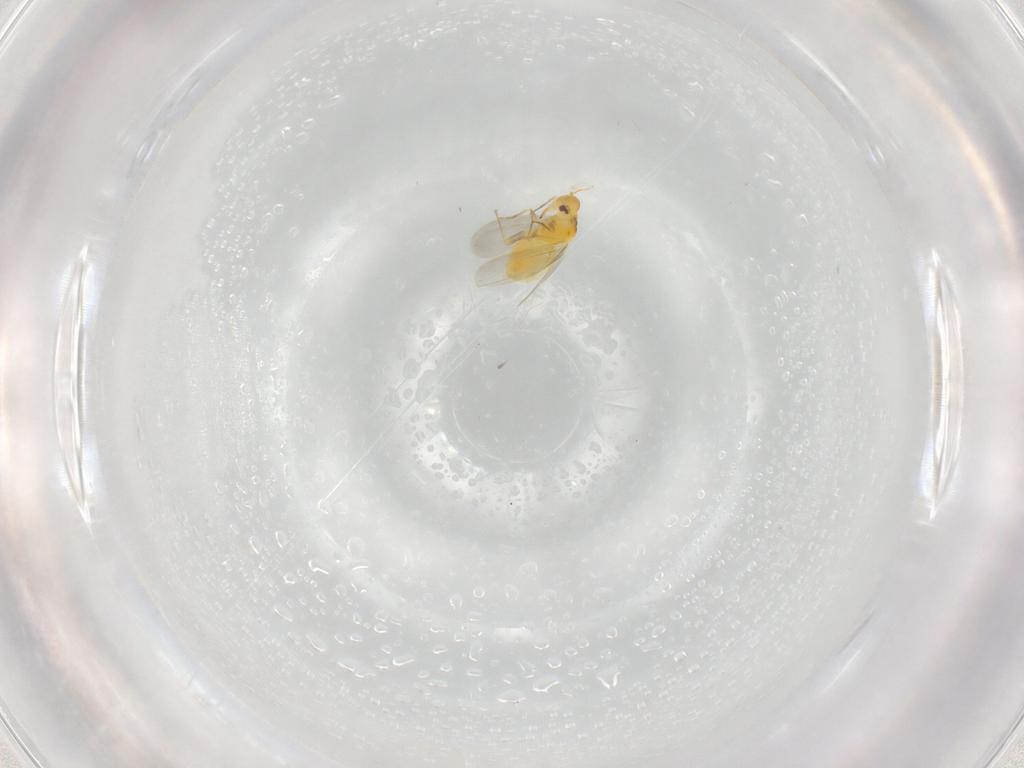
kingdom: Animalia
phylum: Arthropoda
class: Insecta
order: Hemiptera
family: Aleyrodidae
